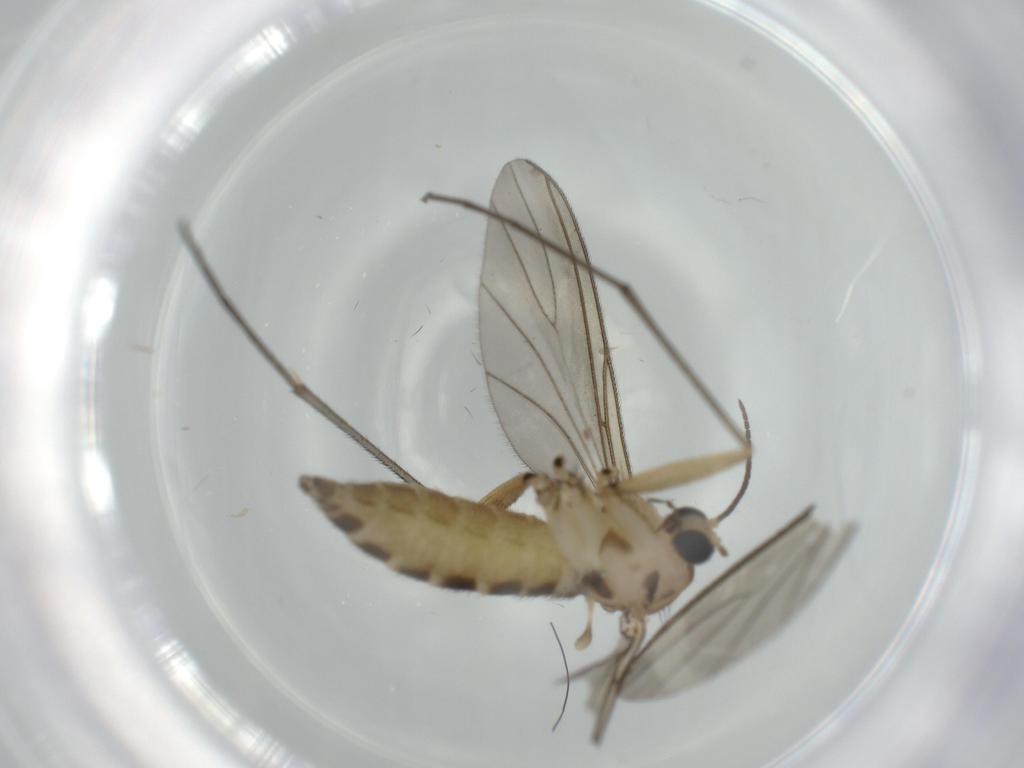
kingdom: Animalia
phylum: Arthropoda
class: Insecta
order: Diptera
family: Sciaridae
